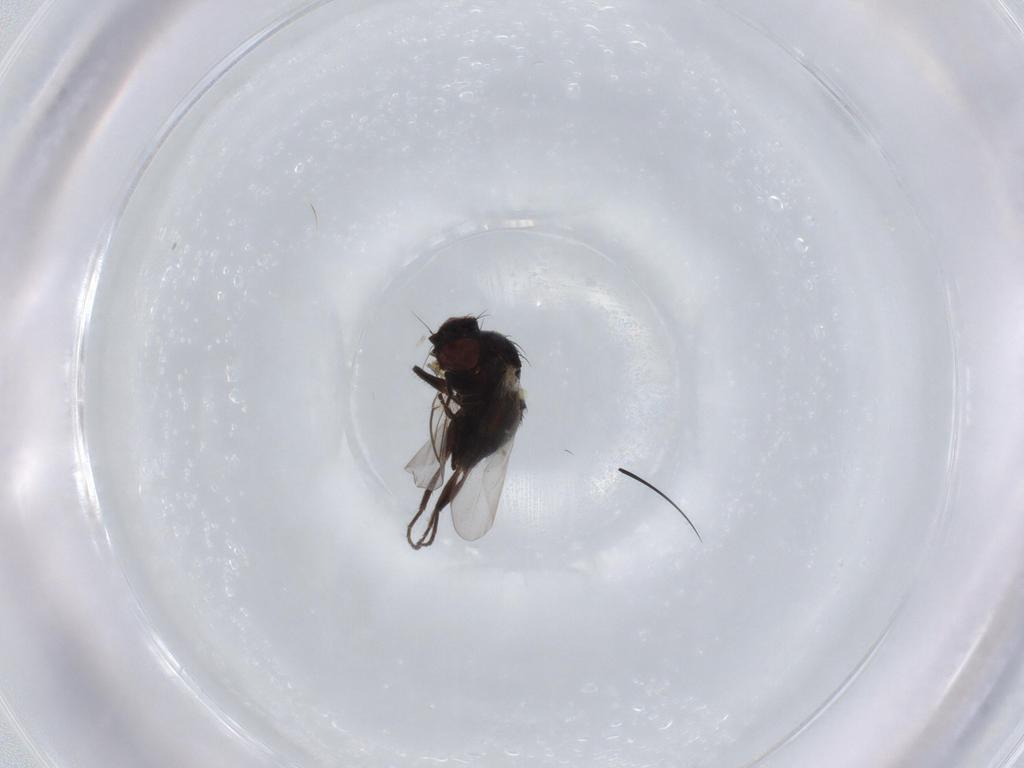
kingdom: Animalia
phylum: Arthropoda
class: Insecta
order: Diptera
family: Agromyzidae
